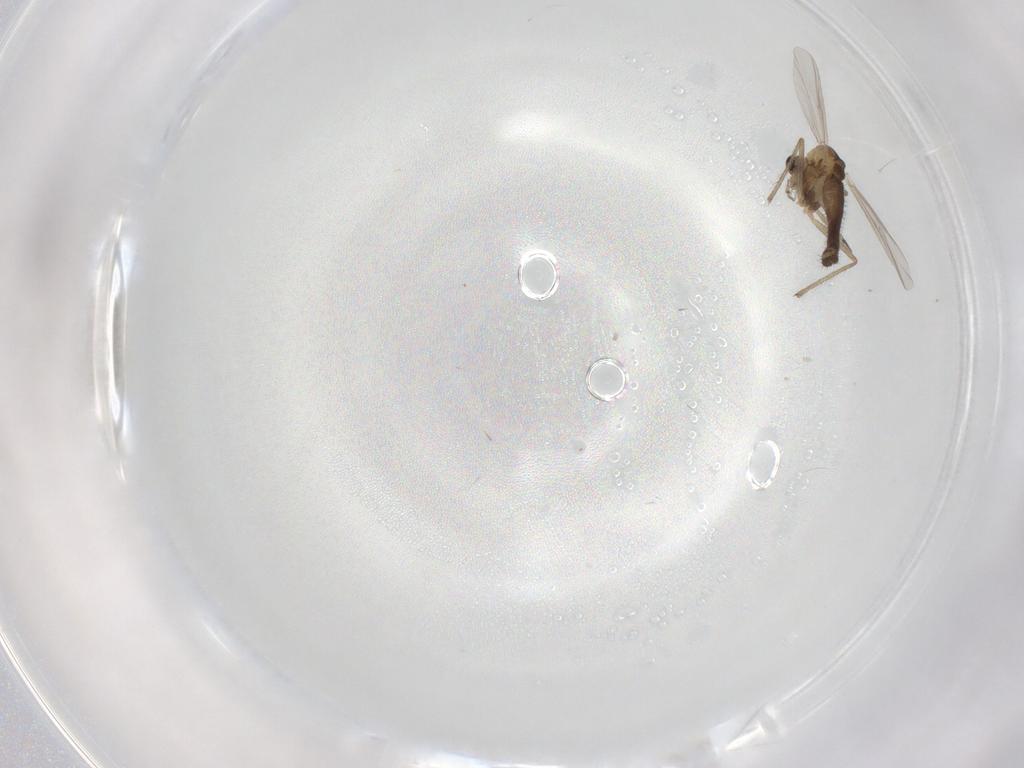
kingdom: Animalia
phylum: Arthropoda
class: Insecta
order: Diptera
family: Chironomidae
